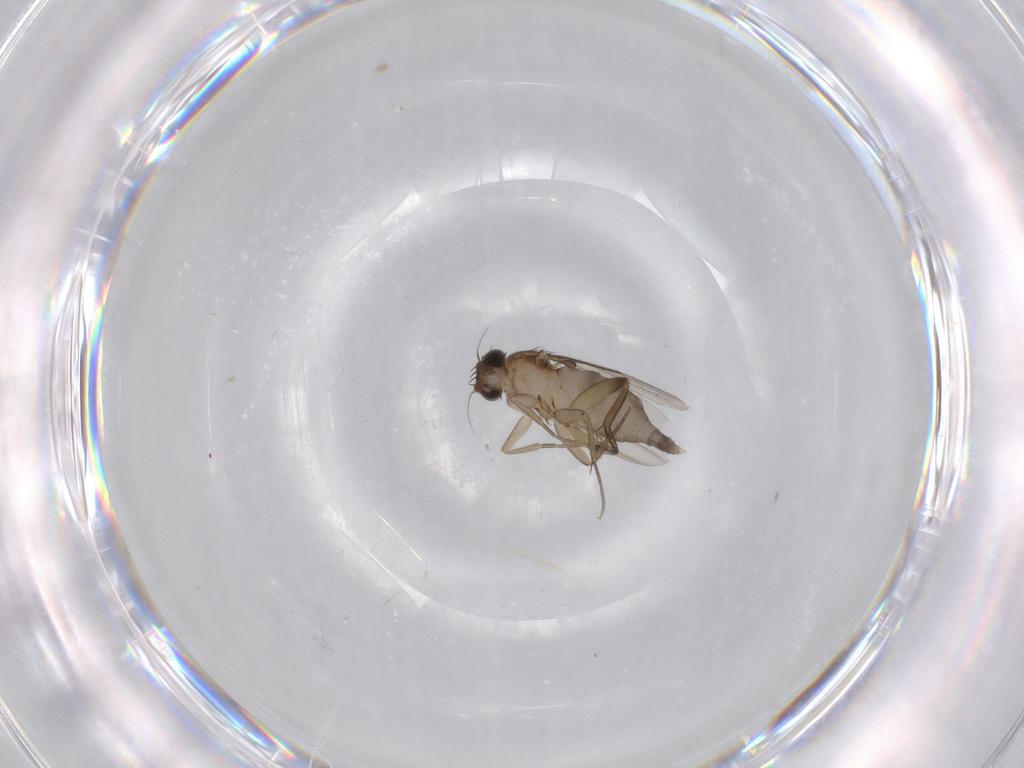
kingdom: Animalia
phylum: Arthropoda
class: Insecta
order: Diptera
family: Phoridae
